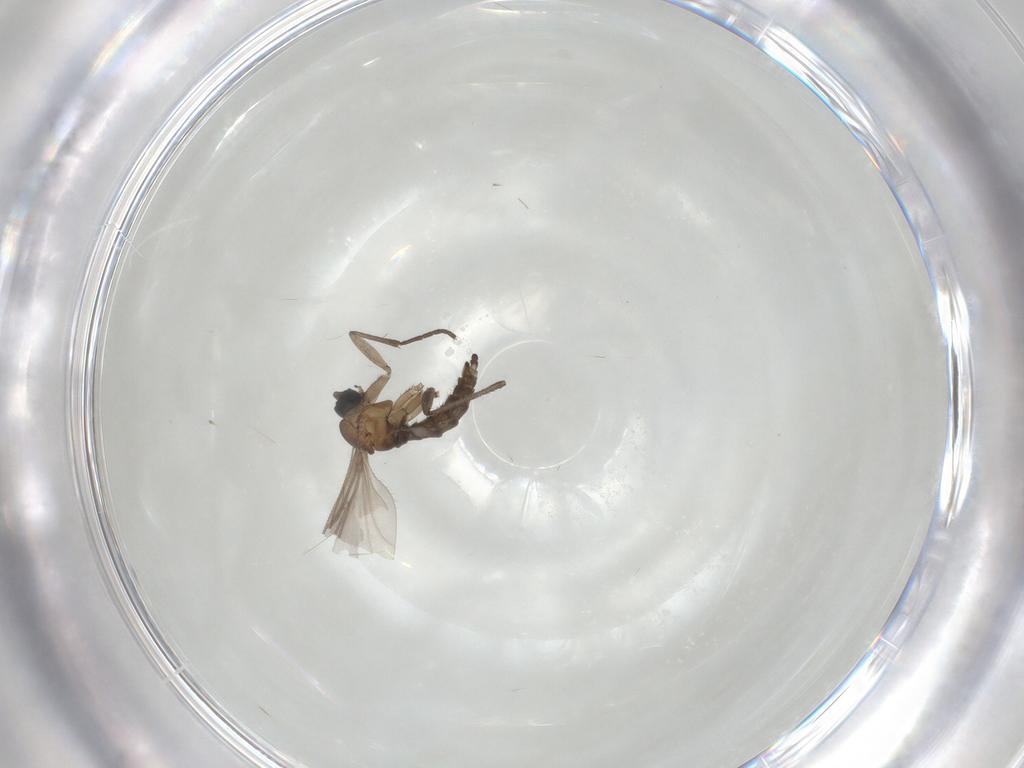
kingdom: Animalia
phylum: Arthropoda
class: Insecta
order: Diptera
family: Sciaridae
